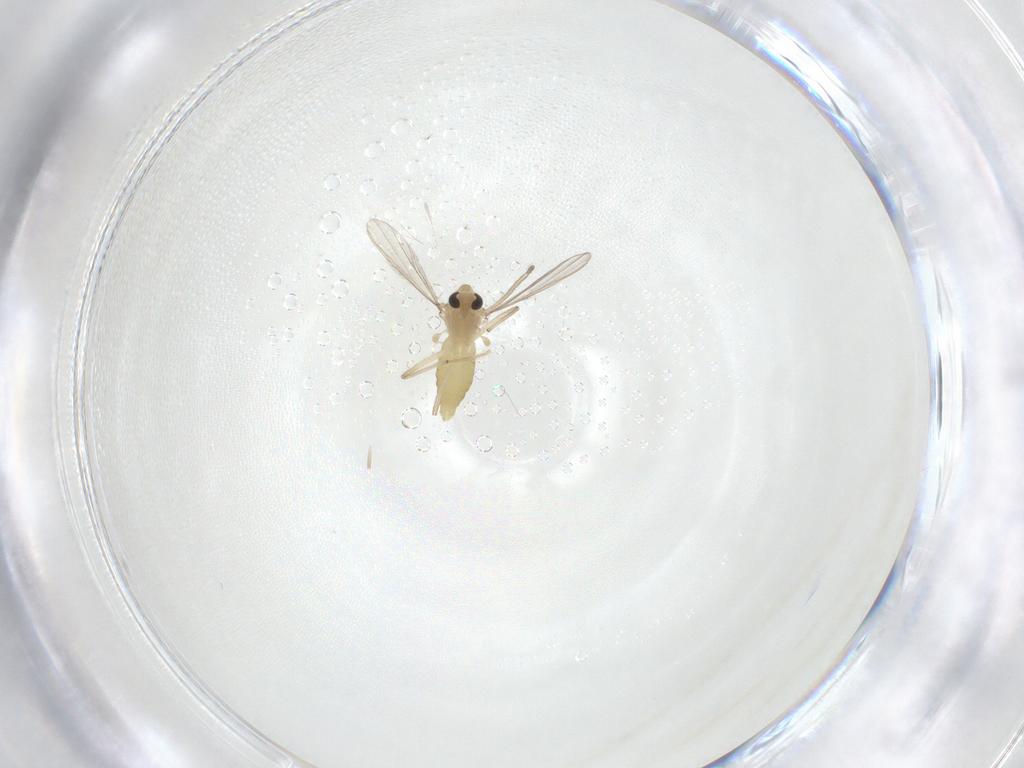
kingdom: Animalia
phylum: Arthropoda
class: Insecta
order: Diptera
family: Chironomidae
